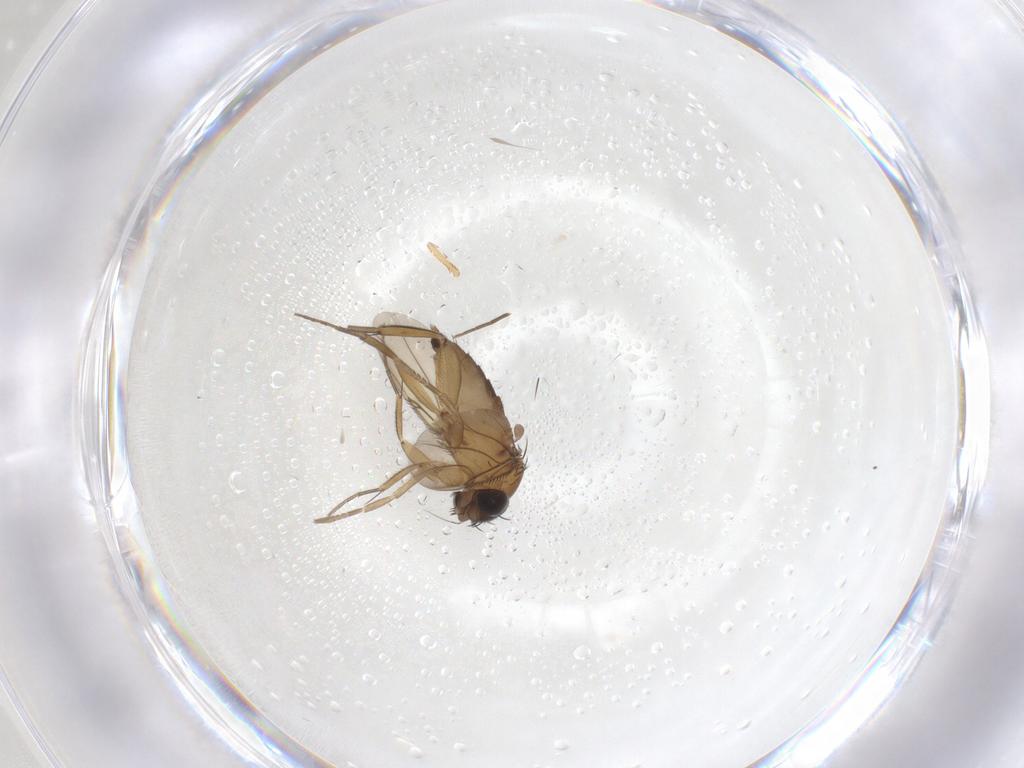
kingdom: Animalia
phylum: Arthropoda
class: Insecta
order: Diptera
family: Phoridae
